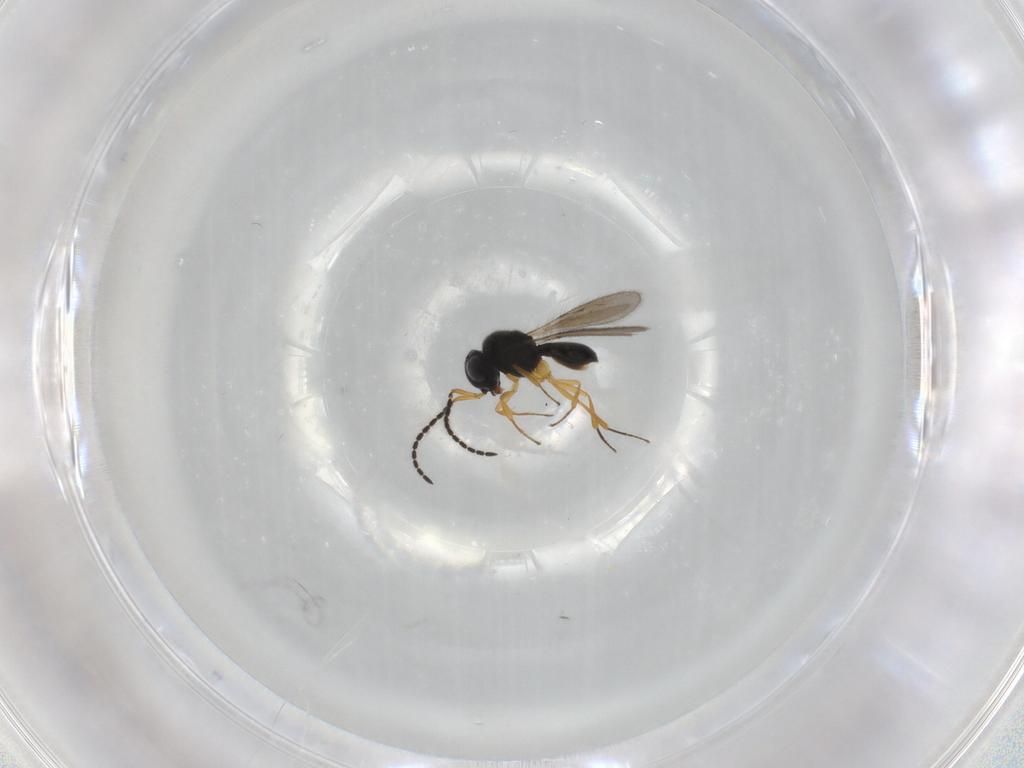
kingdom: Animalia
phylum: Arthropoda
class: Insecta
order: Hymenoptera
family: Scelionidae
